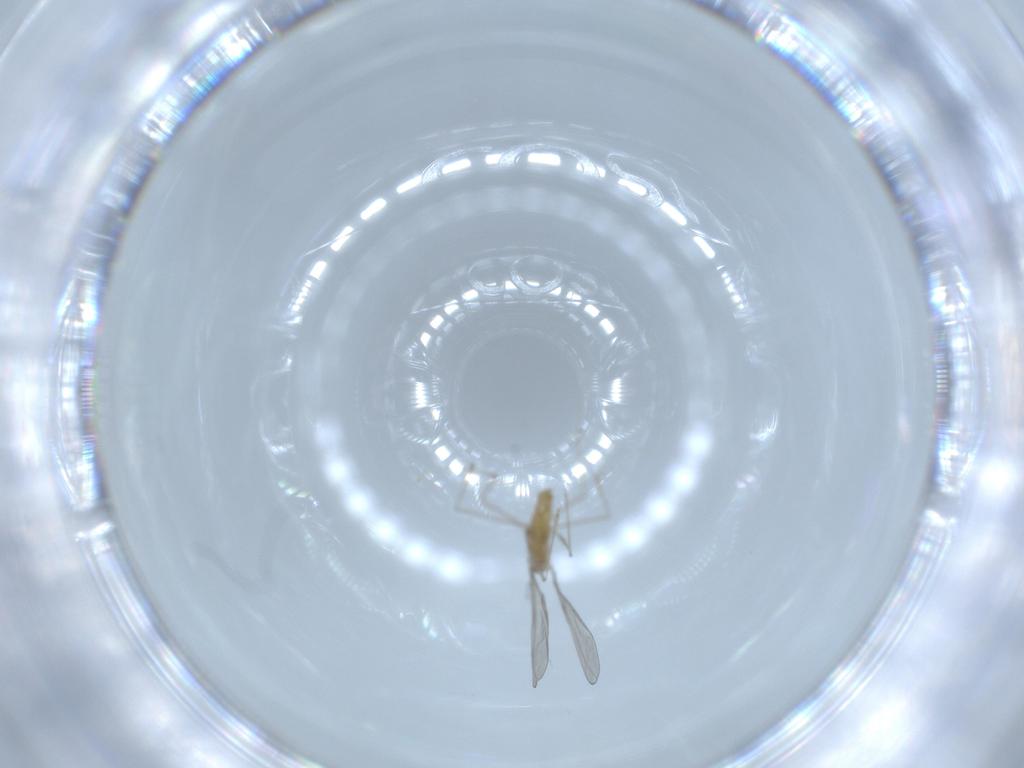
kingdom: Animalia
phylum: Arthropoda
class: Insecta
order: Diptera
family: Cecidomyiidae
